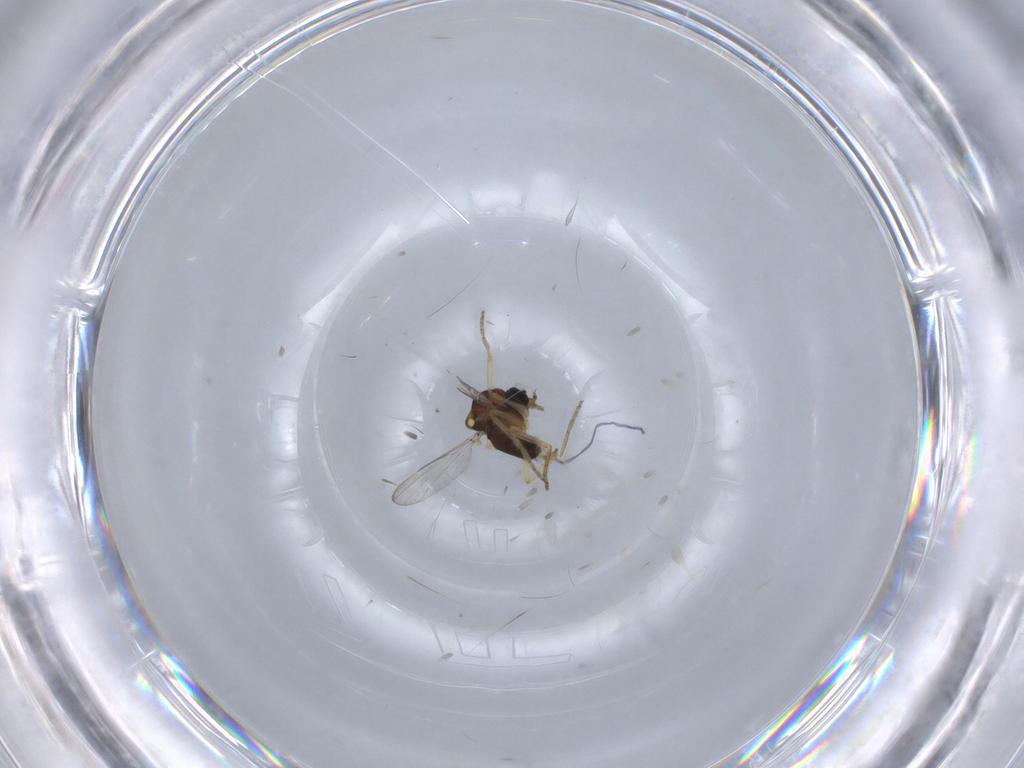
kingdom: Animalia
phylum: Arthropoda
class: Insecta
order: Diptera
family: Ceratopogonidae
